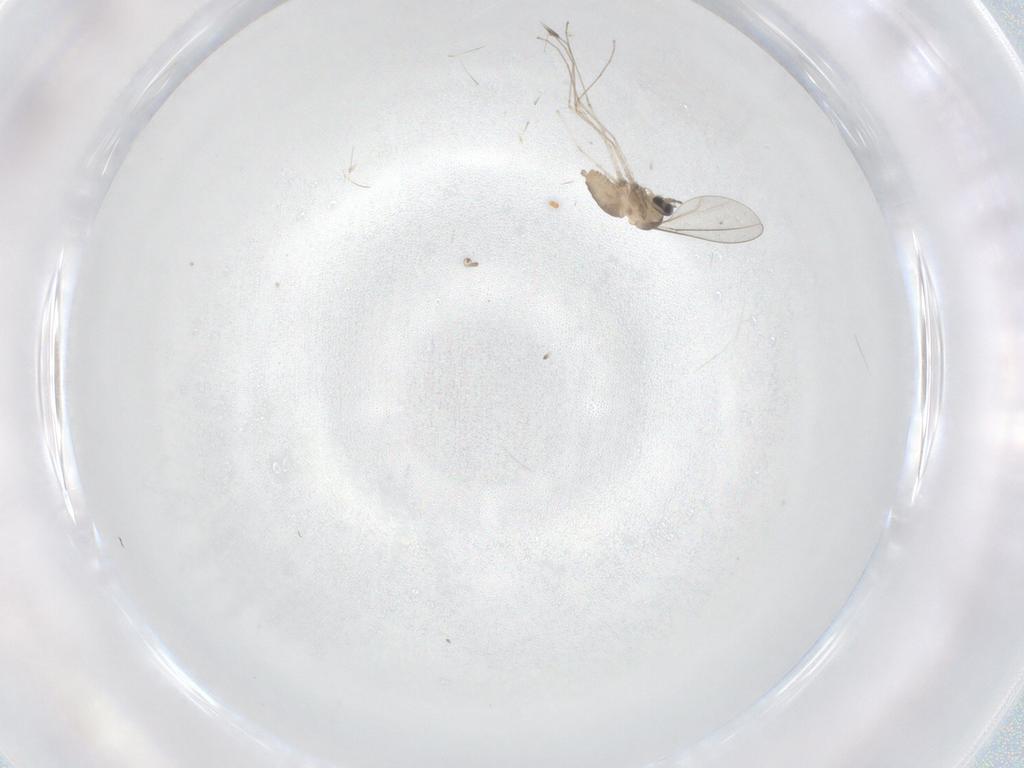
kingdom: Animalia
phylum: Arthropoda
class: Insecta
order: Diptera
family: Cecidomyiidae
